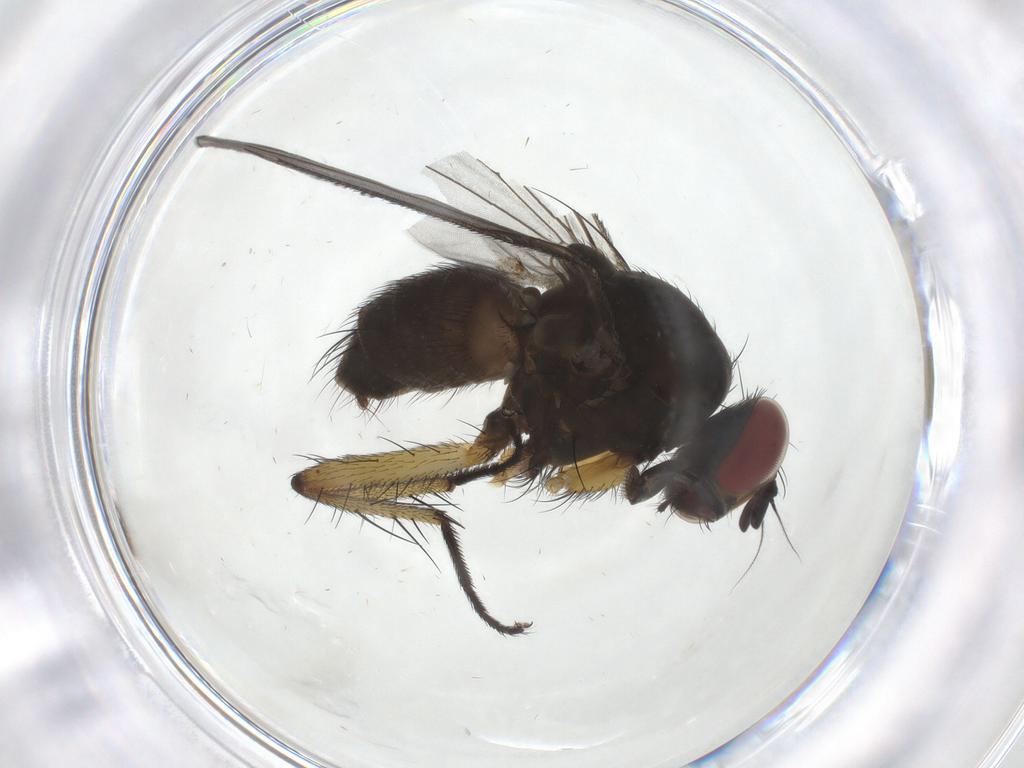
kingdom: Animalia
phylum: Arthropoda
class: Insecta
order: Diptera
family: Muscidae
